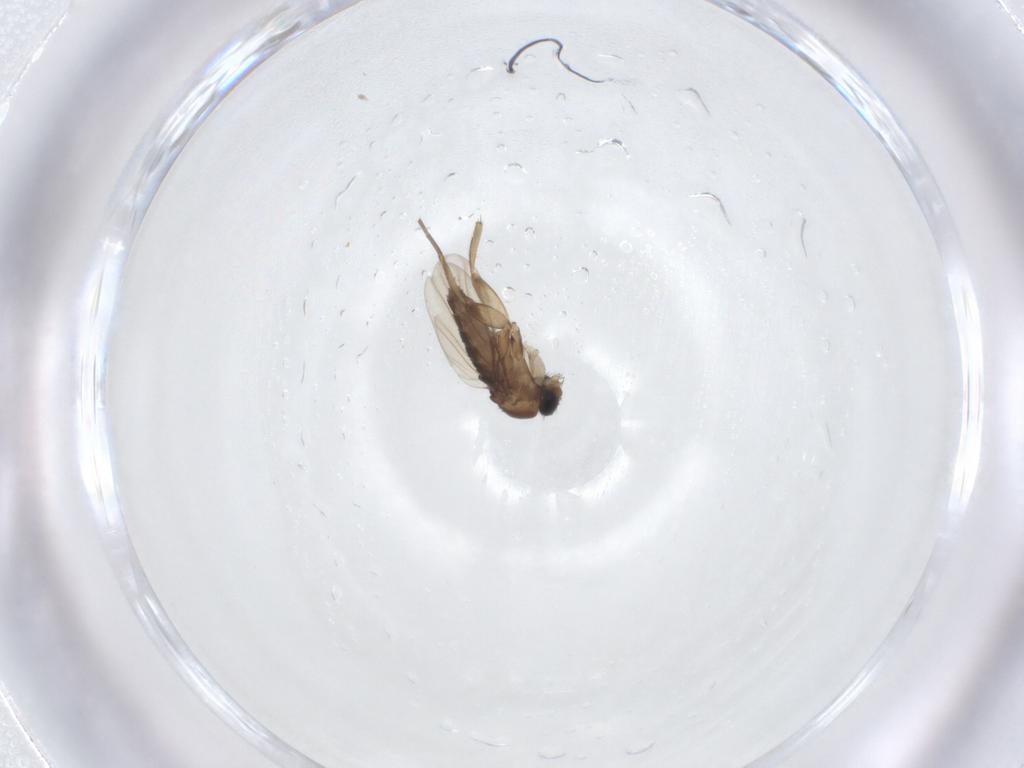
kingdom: Animalia
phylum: Arthropoda
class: Insecta
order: Diptera
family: Phoridae
